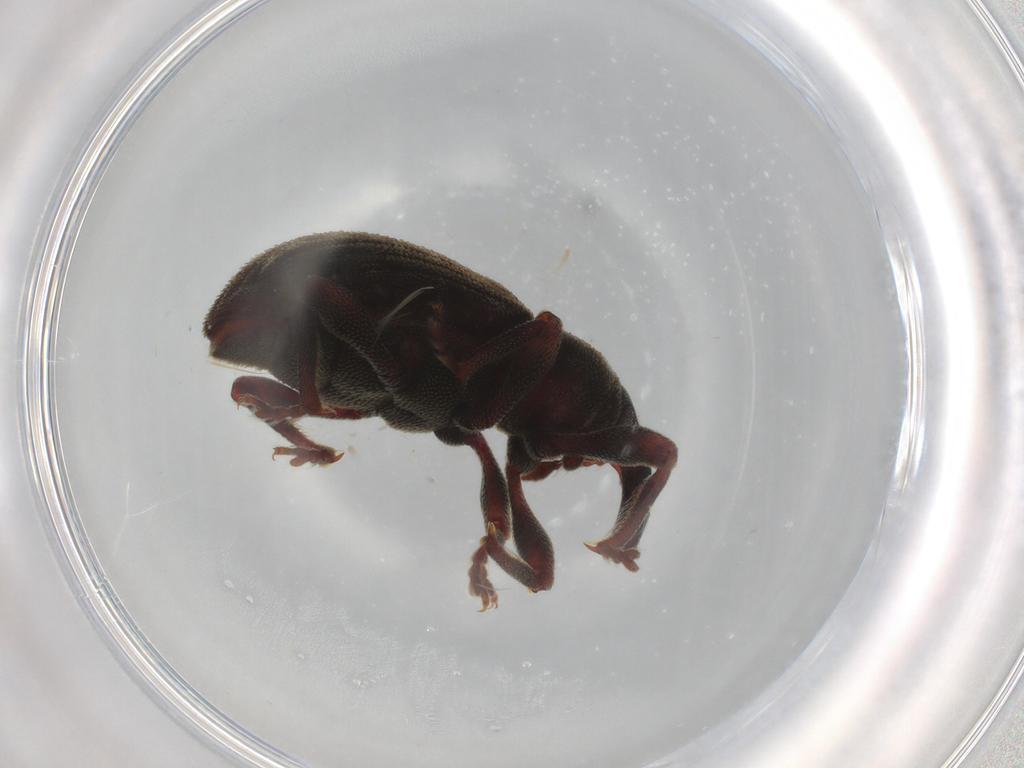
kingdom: Animalia
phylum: Arthropoda
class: Insecta
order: Coleoptera
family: Curculionidae
